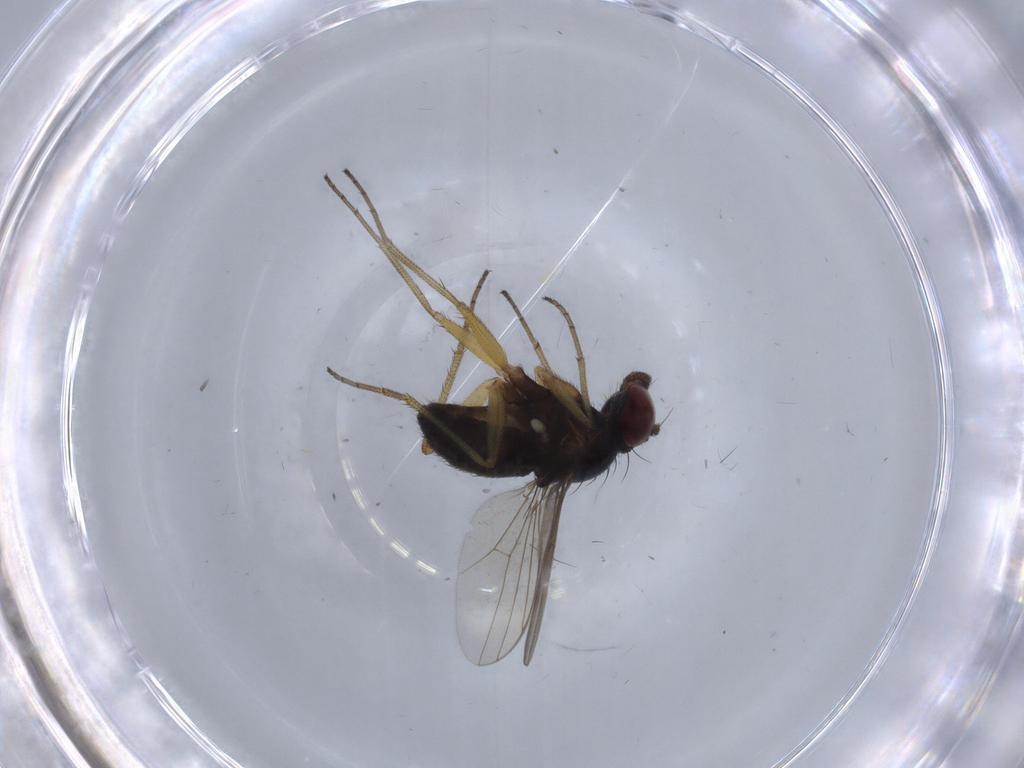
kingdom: Animalia
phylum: Arthropoda
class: Insecta
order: Diptera
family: Dolichopodidae
